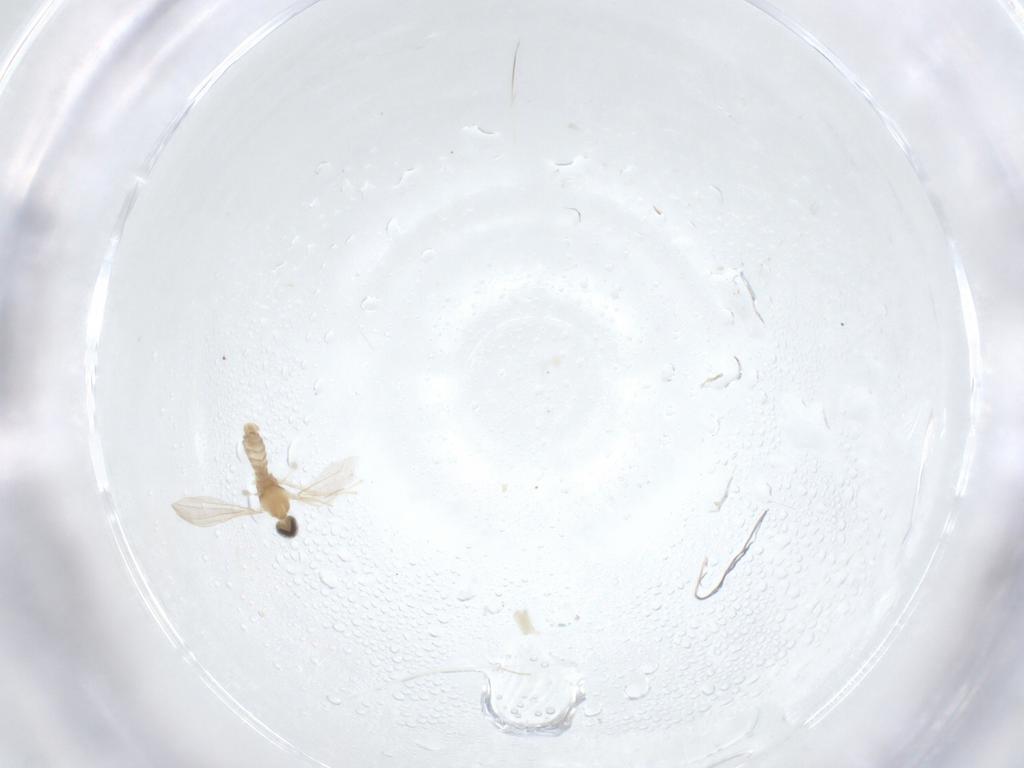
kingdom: Animalia
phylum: Arthropoda
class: Insecta
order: Diptera
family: Cecidomyiidae
